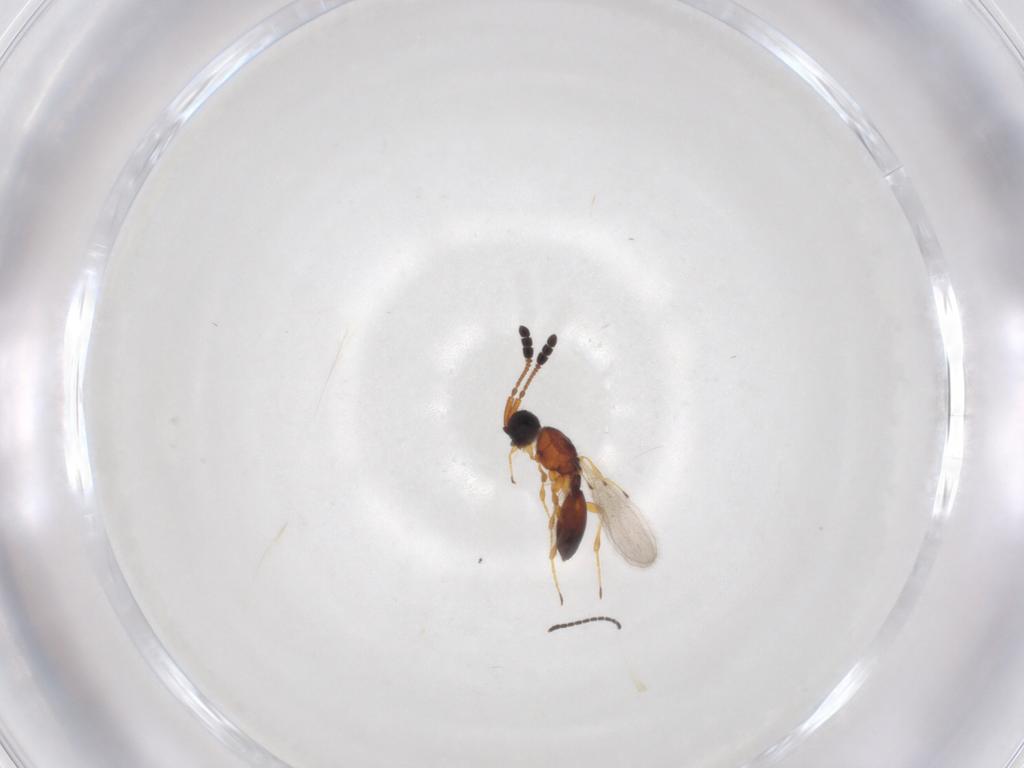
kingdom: Animalia
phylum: Arthropoda
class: Insecta
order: Hymenoptera
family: Diapriidae
